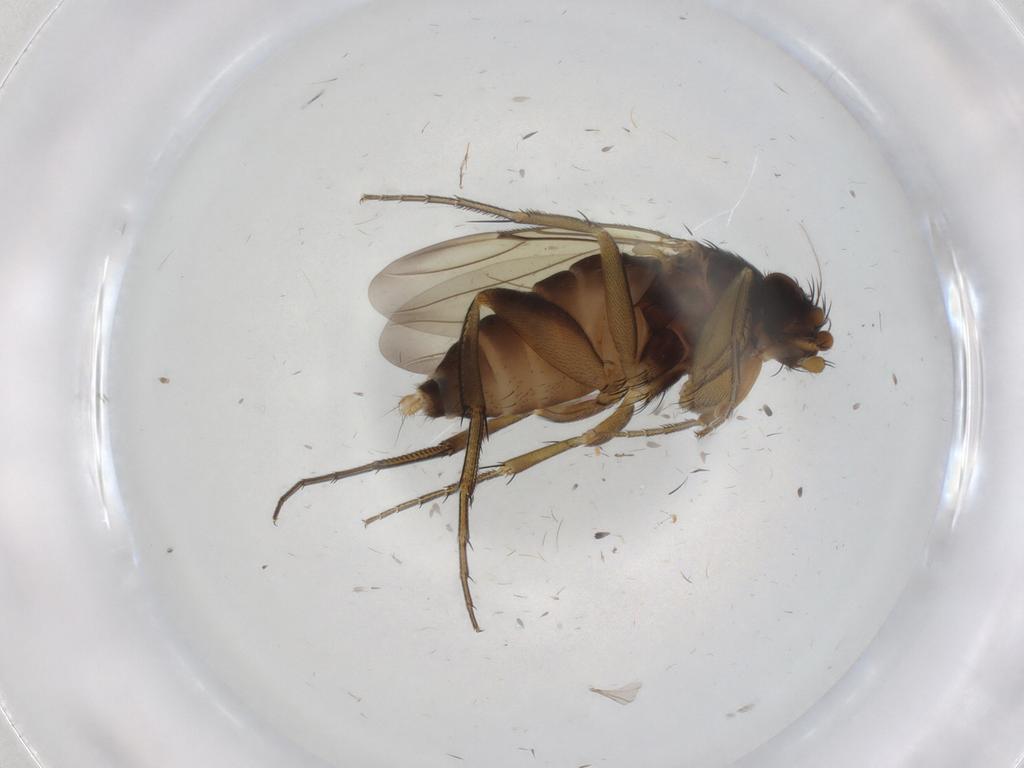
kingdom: Animalia
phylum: Arthropoda
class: Insecta
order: Diptera
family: Phoridae
